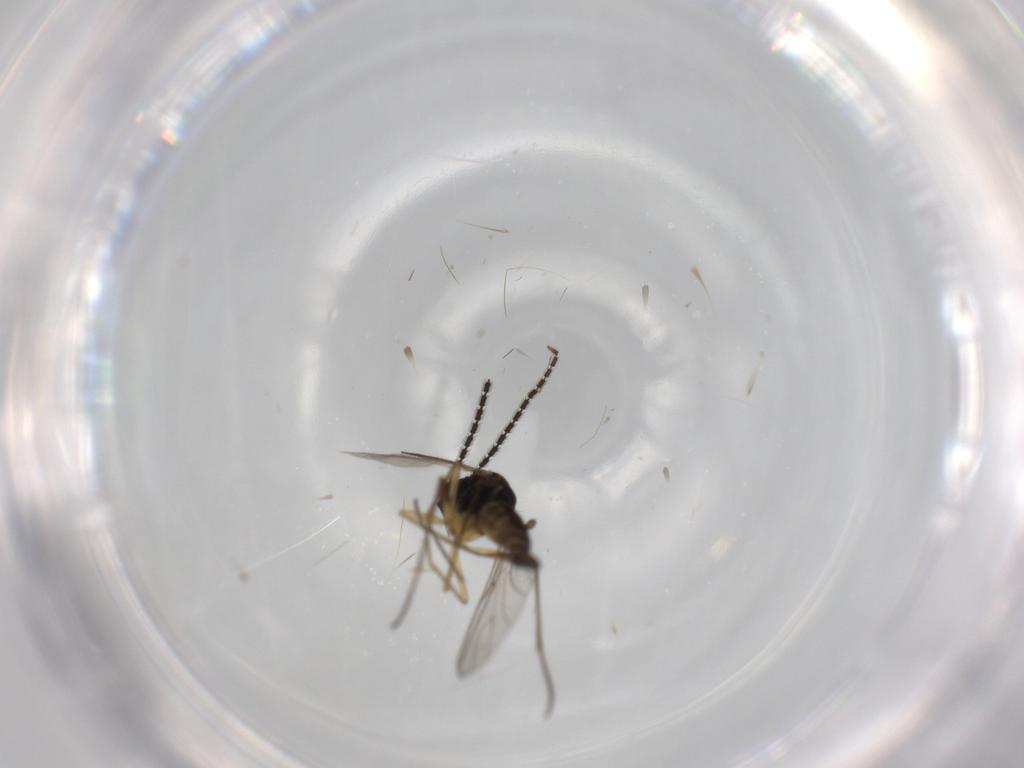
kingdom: Animalia
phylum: Arthropoda
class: Insecta
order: Diptera
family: Sciaridae
